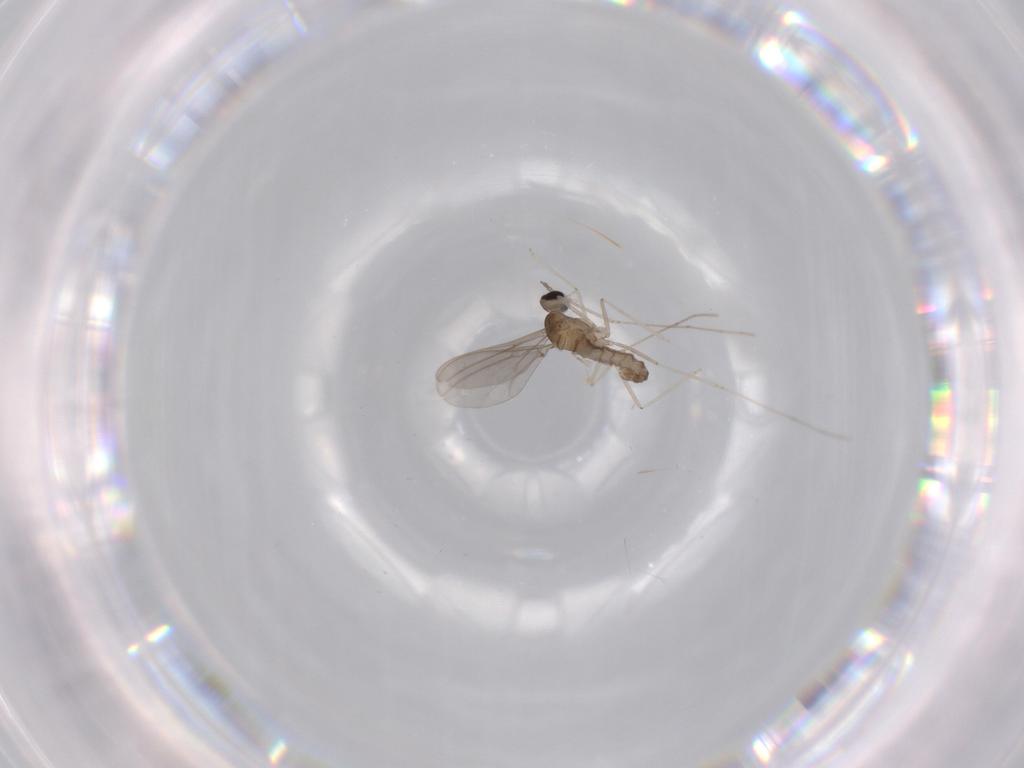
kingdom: Animalia
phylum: Arthropoda
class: Insecta
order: Diptera
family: Cecidomyiidae
